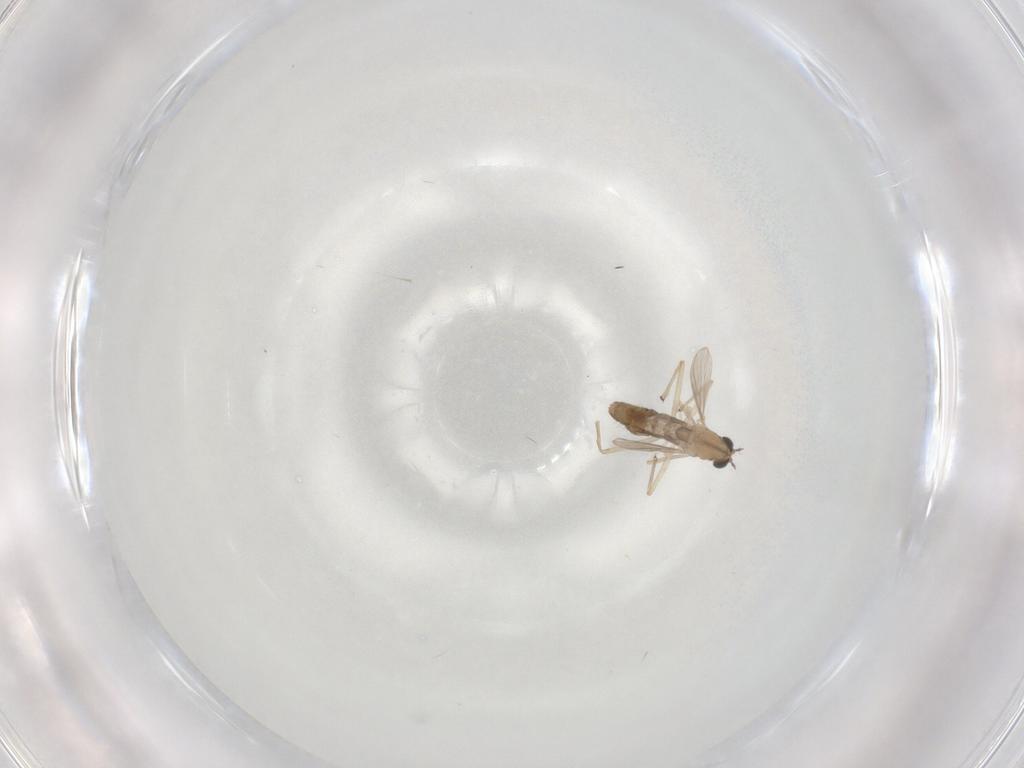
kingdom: Animalia
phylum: Arthropoda
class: Insecta
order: Diptera
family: Chironomidae
